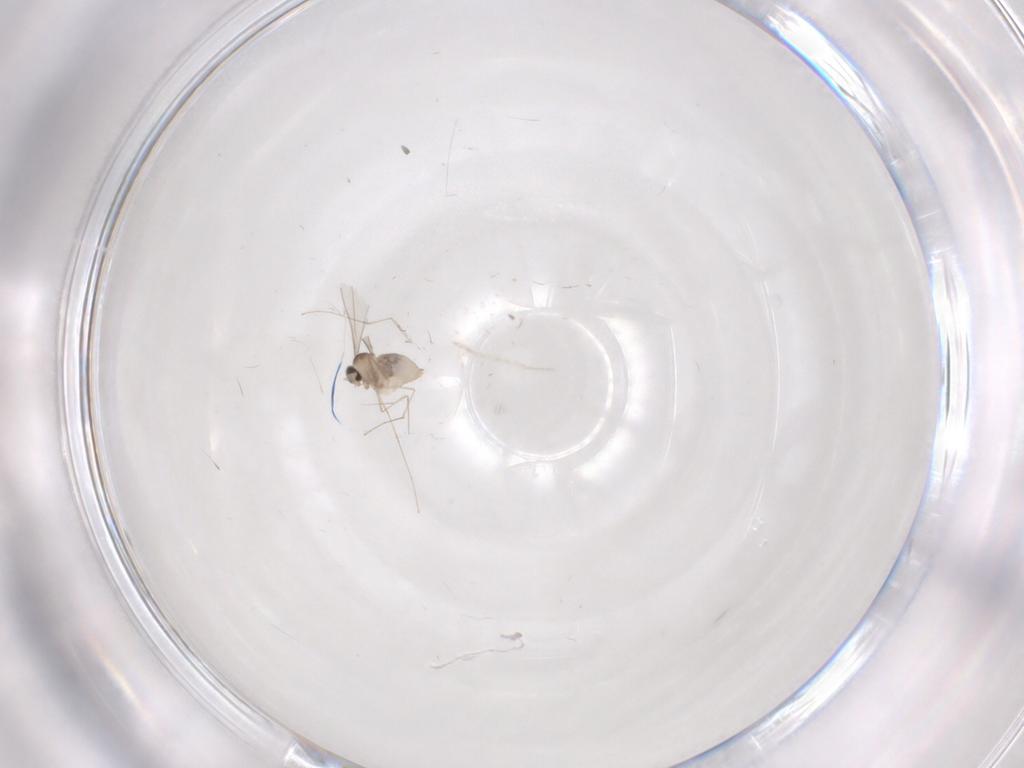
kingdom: Animalia
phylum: Arthropoda
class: Insecta
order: Diptera
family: Cecidomyiidae
